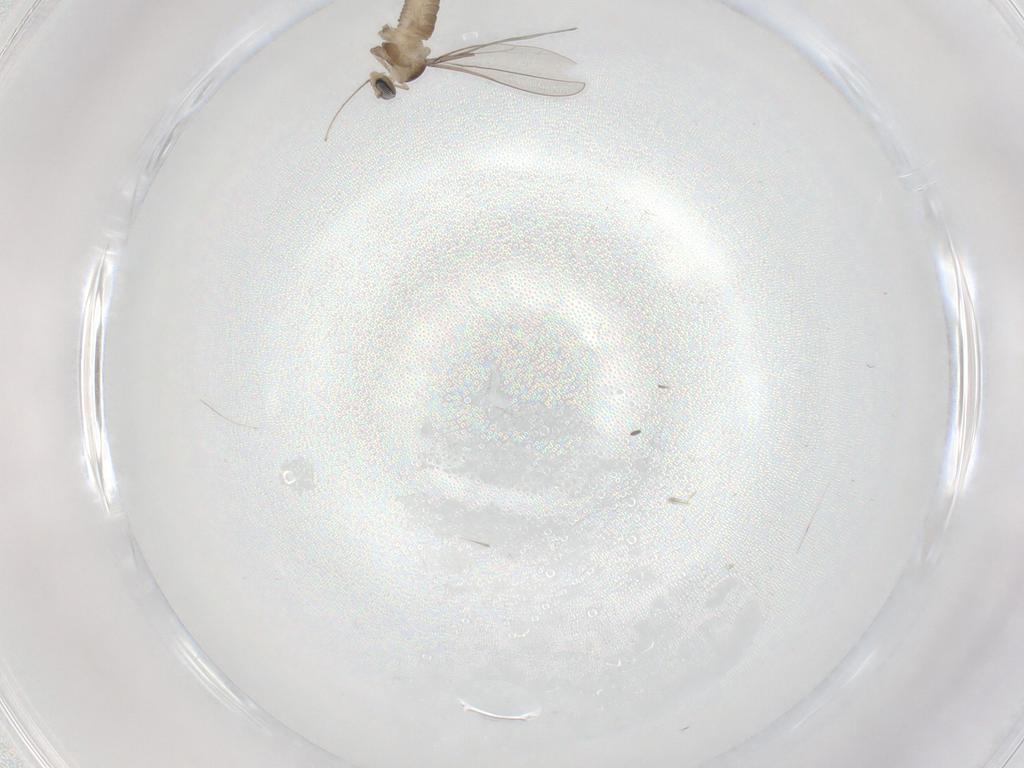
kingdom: Animalia
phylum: Arthropoda
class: Insecta
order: Diptera
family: Cecidomyiidae
